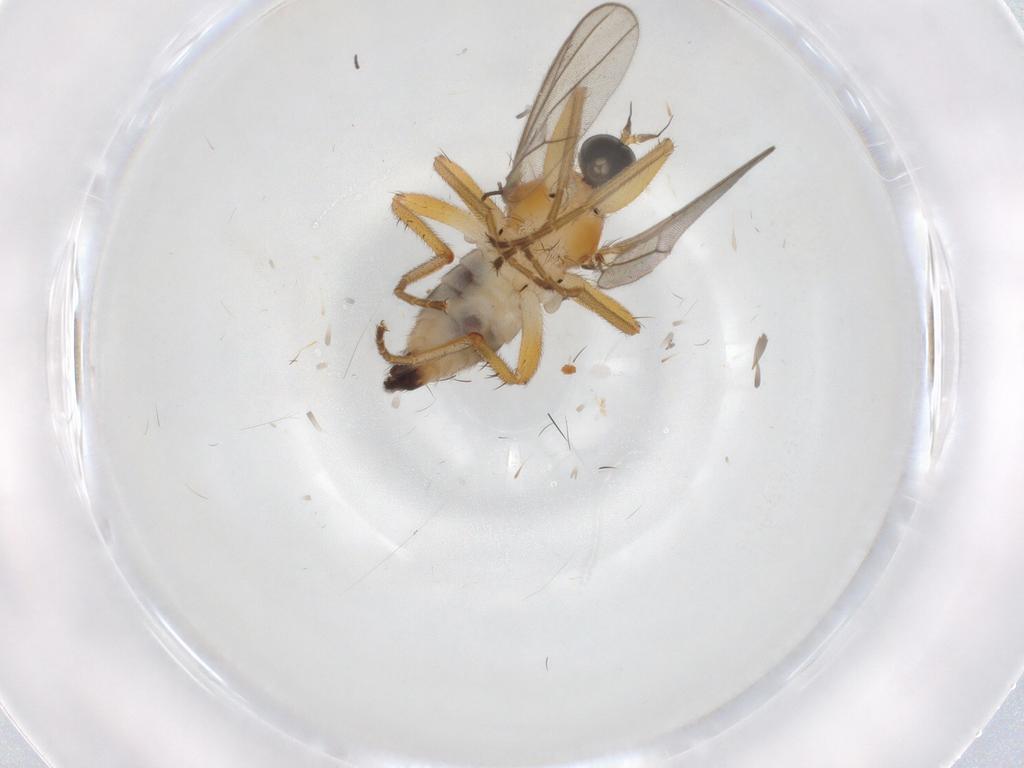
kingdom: Animalia
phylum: Arthropoda
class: Insecta
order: Diptera
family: Hybotidae
